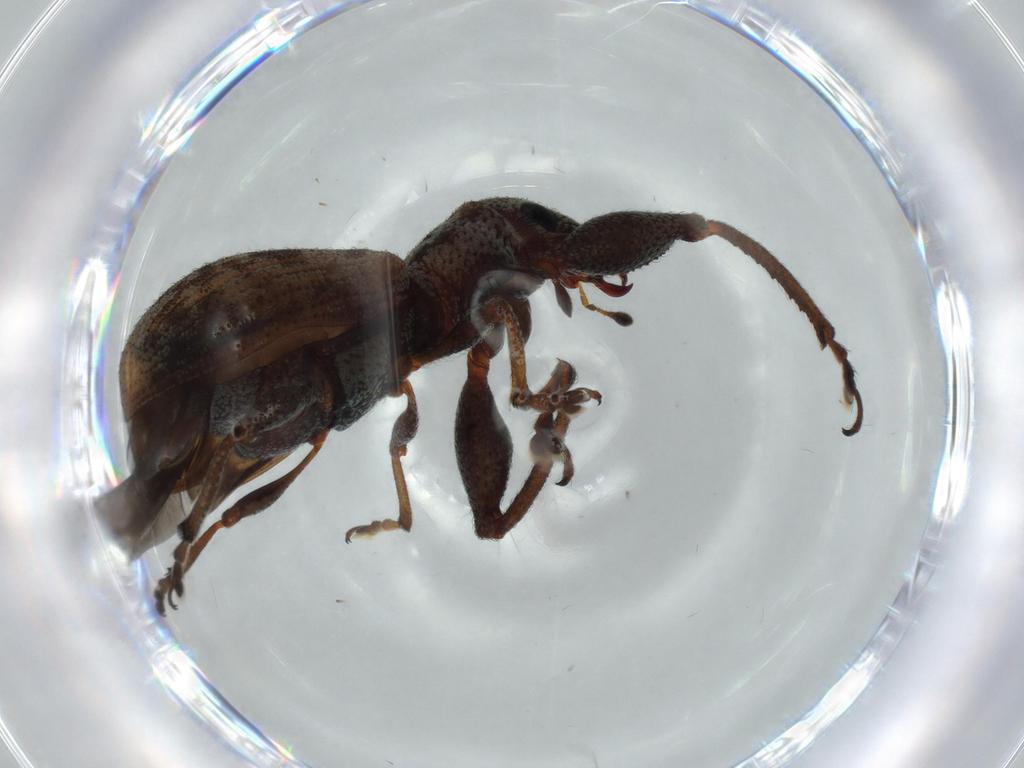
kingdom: Animalia
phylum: Arthropoda
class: Insecta
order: Coleoptera
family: Curculionidae
